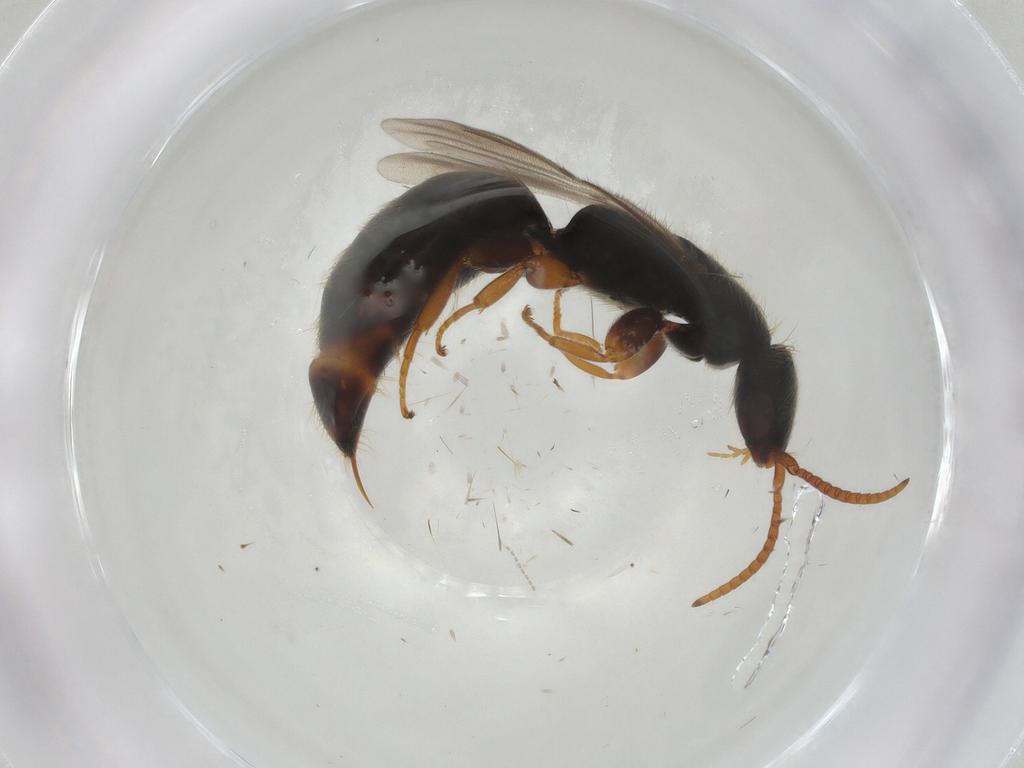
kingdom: Animalia
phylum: Arthropoda
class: Insecta
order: Hymenoptera
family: Bethylidae
